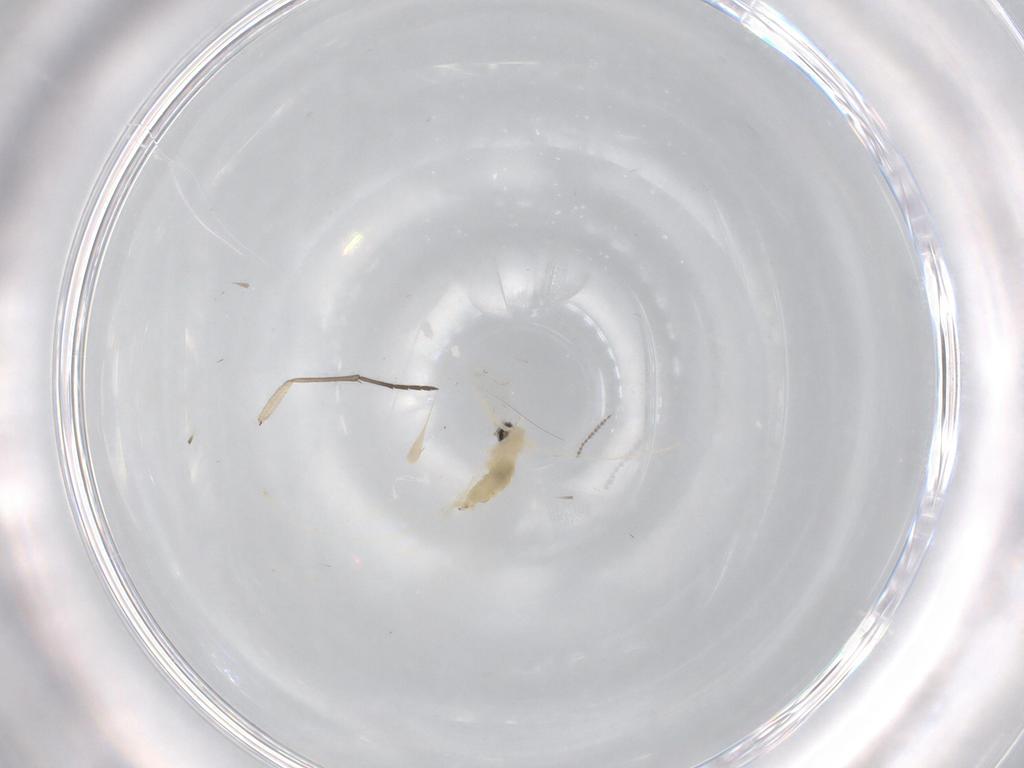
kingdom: Animalia
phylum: Arthropoda
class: Insecta
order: Diptera
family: Cecidomyiidae
